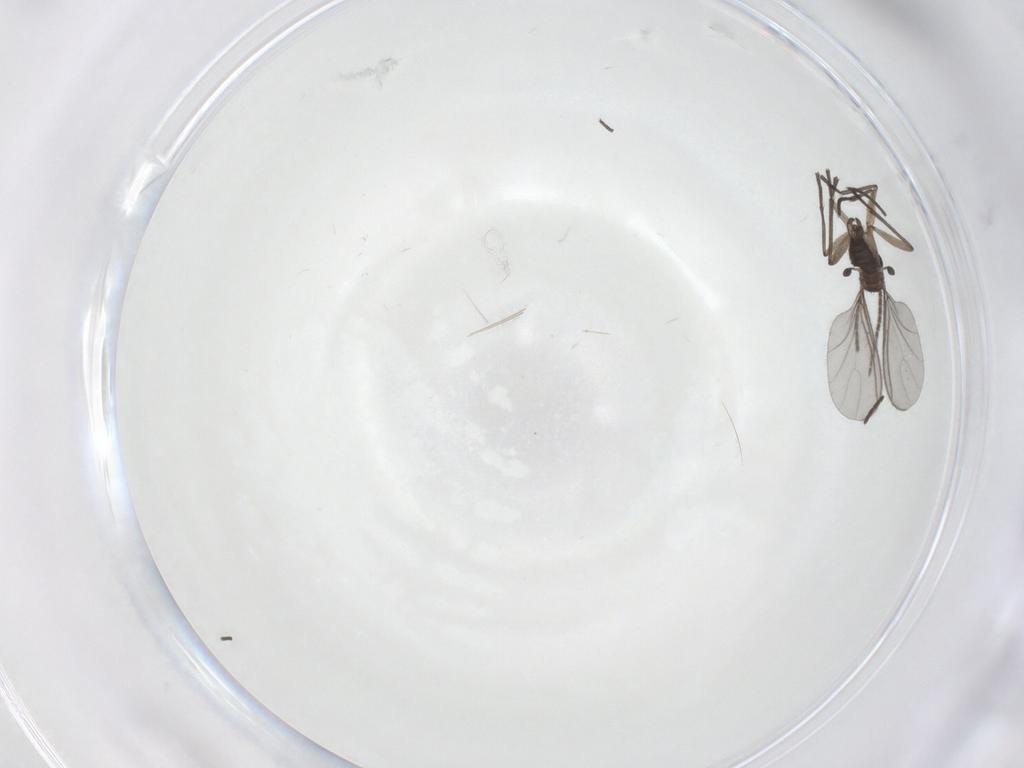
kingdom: Animalia
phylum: Arthropoda
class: Insecta
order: Diptera
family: Sciaridae
